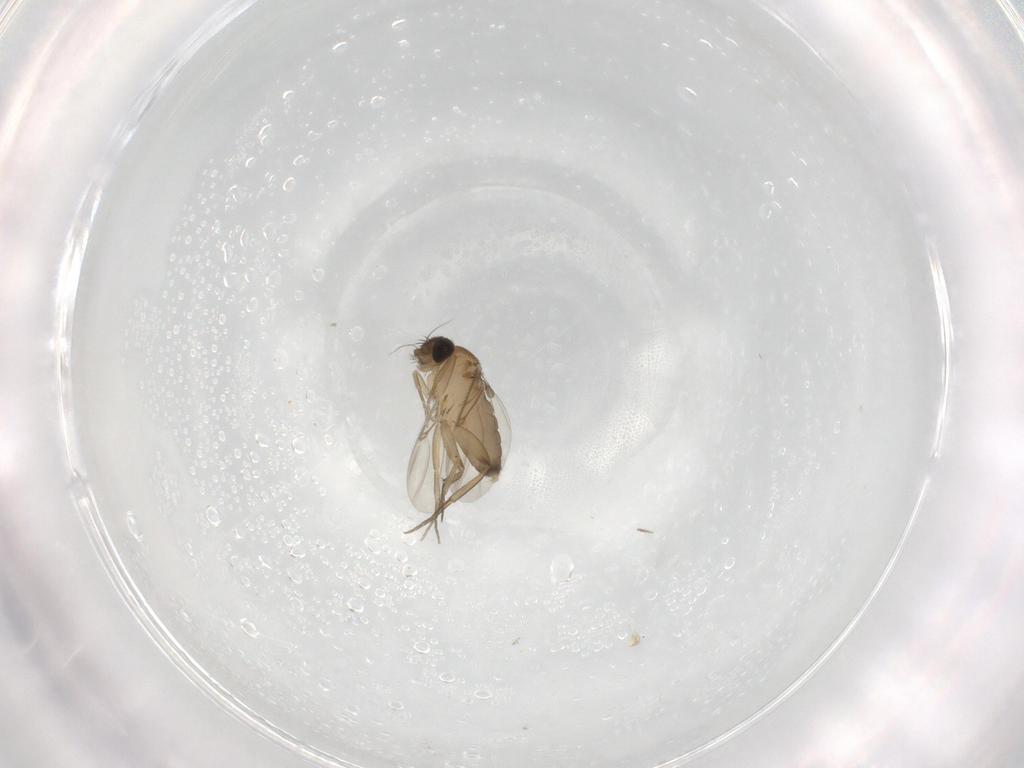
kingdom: Animalia
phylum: Arthropoda
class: Insecta
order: Diptera
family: Phoridae
